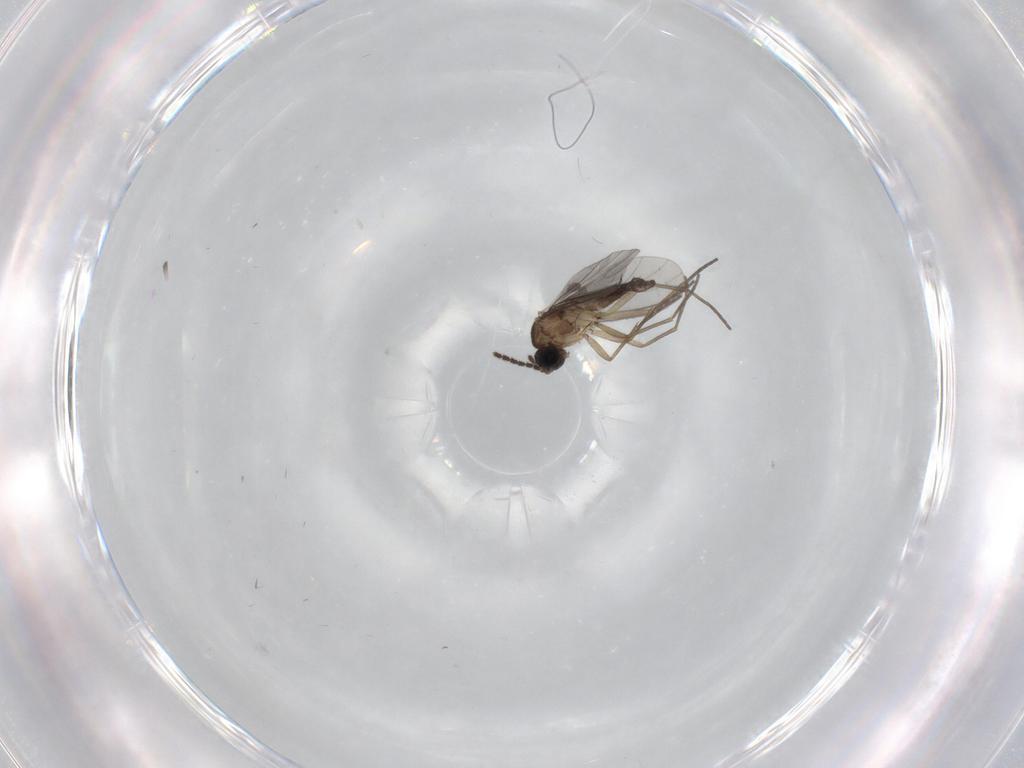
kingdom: Animalia
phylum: Arthropoda
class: Insecta
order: Diptera
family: Sciaridae
